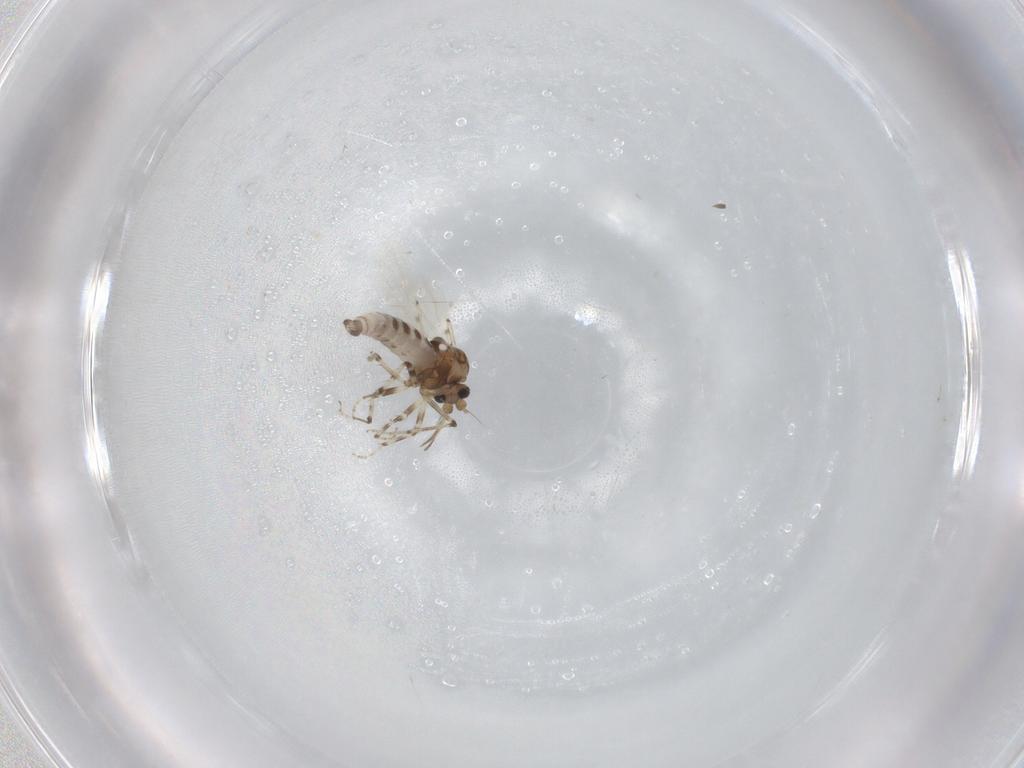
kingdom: Animalia
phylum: Arthropoda
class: Insecta
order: Diptera
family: Ceratopogonidae
